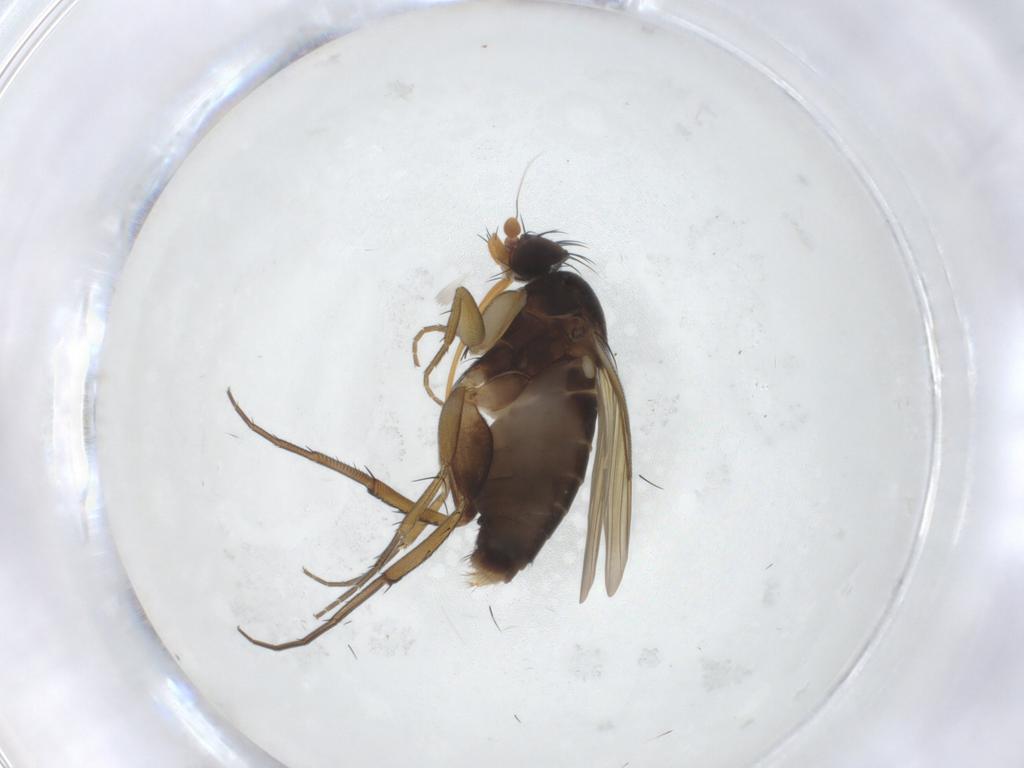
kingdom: Animalia
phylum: Arthropoda
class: Insecta
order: Diptera
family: Phoridae
